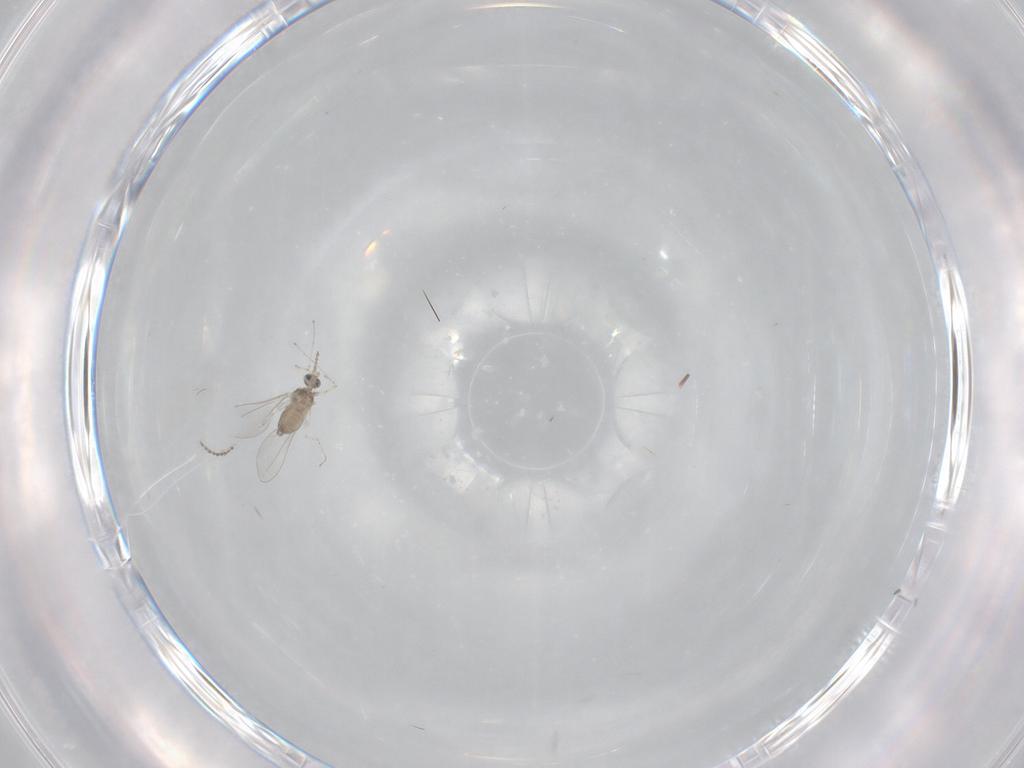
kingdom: Animalia
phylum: Arthropoda
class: Insecta
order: Diptera
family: Cecidomyiidae
